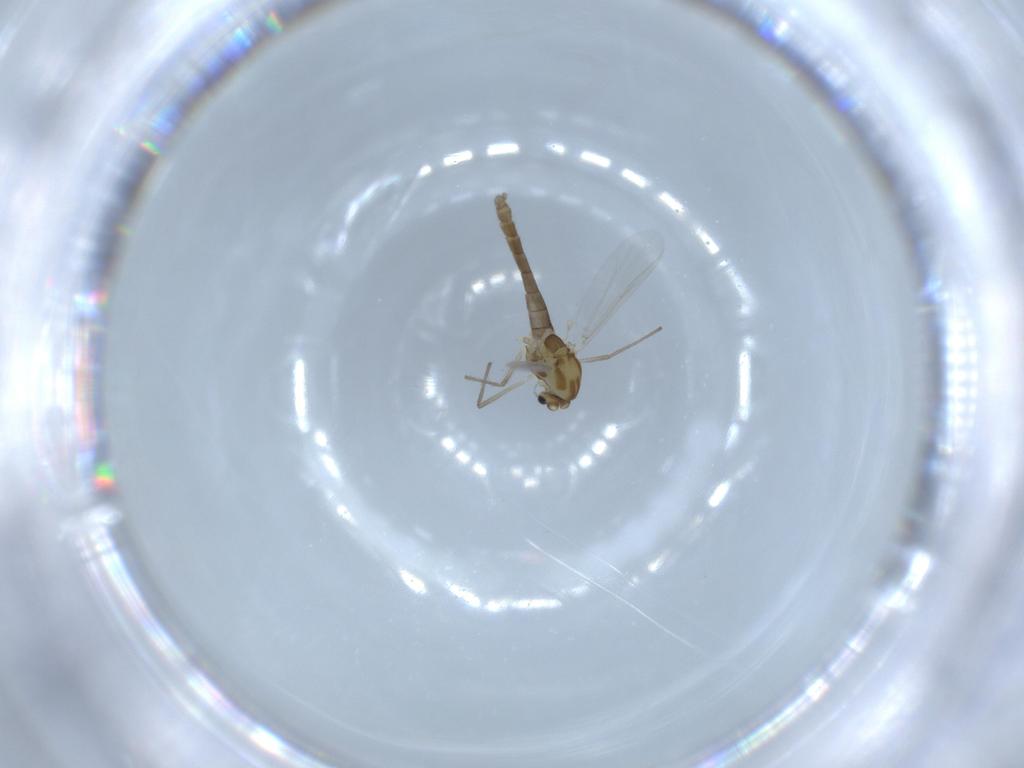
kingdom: Animalia
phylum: Arthropoda
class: Insecta
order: Diptera
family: Chironomidae
